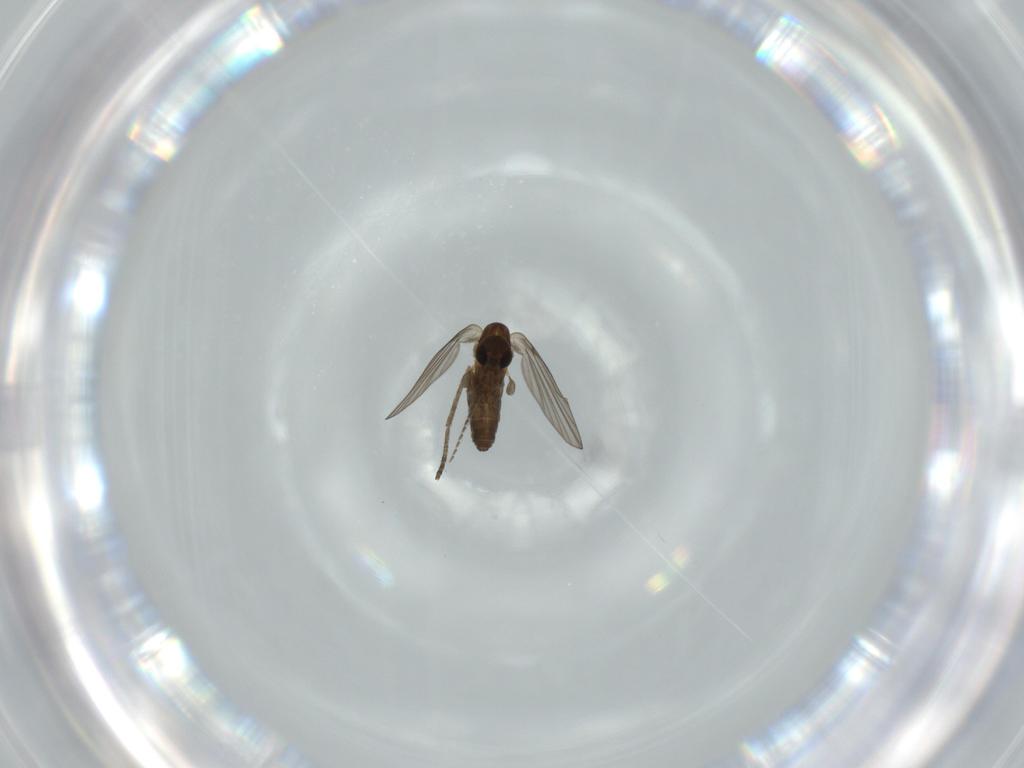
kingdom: Animalia
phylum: Arthropoda
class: Insecta
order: Diptera
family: Cecidomyiidae
